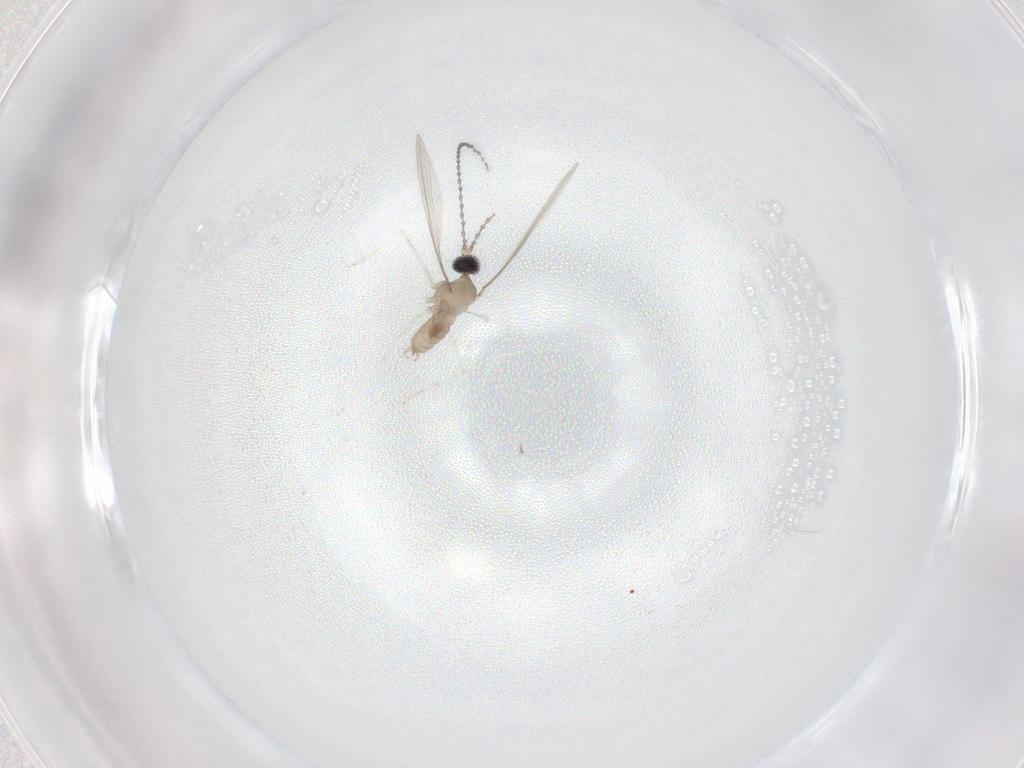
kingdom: Animalia
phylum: Arthropoda
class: Insecta
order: Diptera
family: Cecidomyiidae
